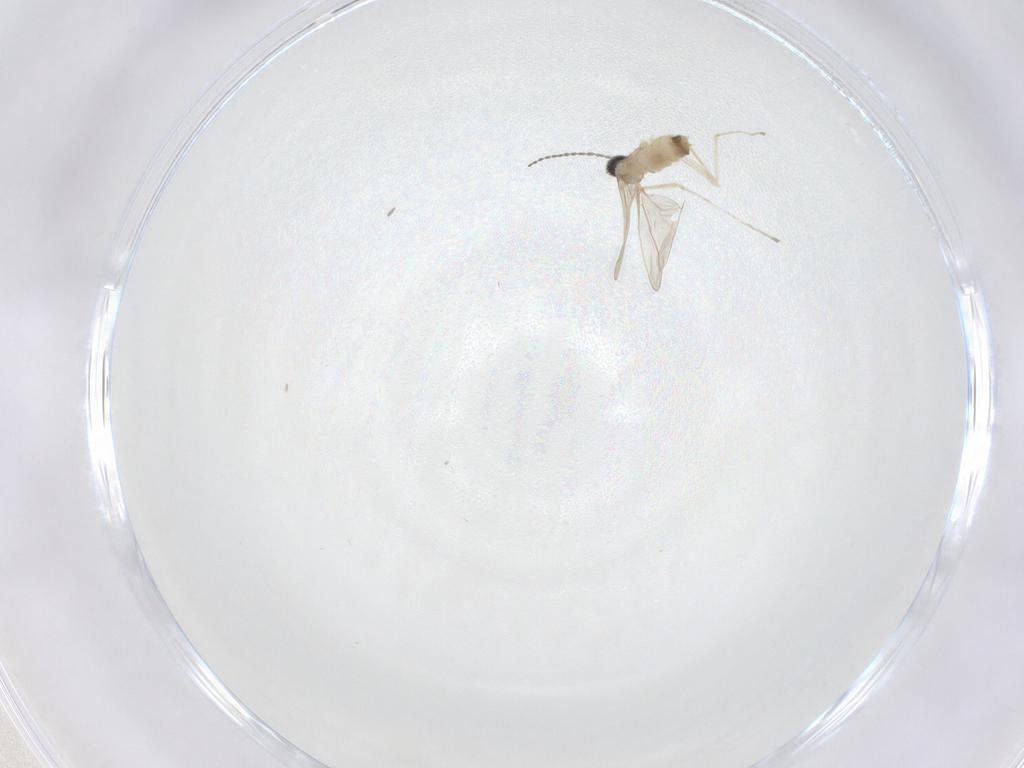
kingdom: Animalia
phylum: Arthropoda
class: Insecta
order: Diptera
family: Cecidomyiidae
